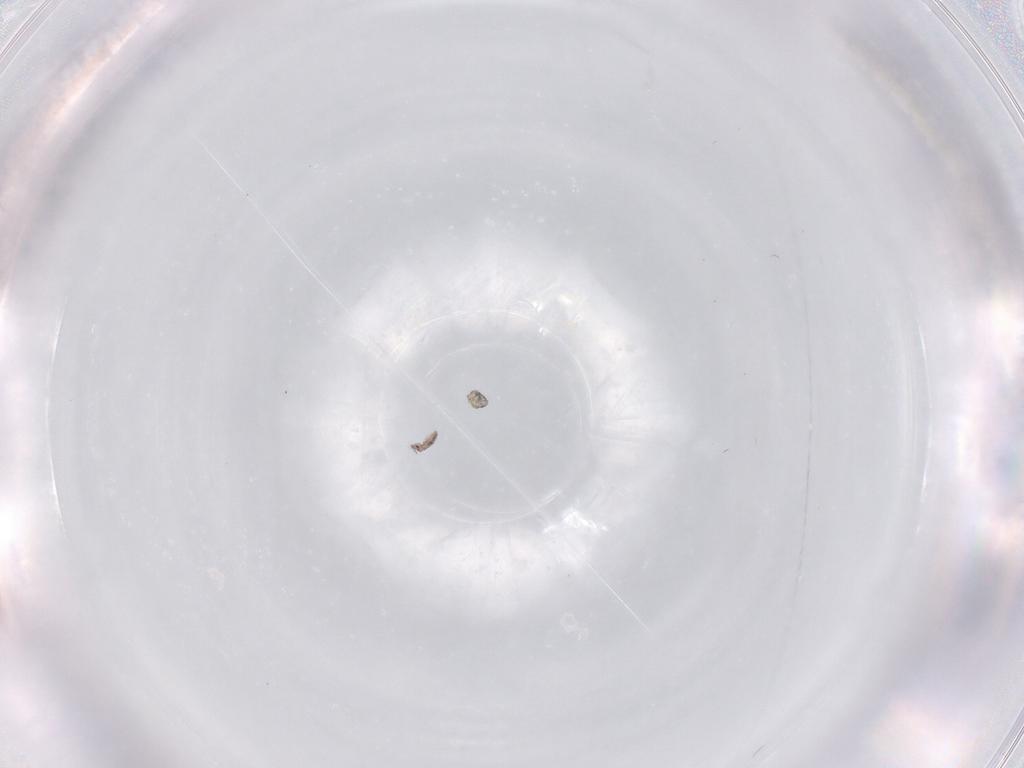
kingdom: Animalia
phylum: Arthropoda
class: Collembola
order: Poduromorpha
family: Hypogastruridae
